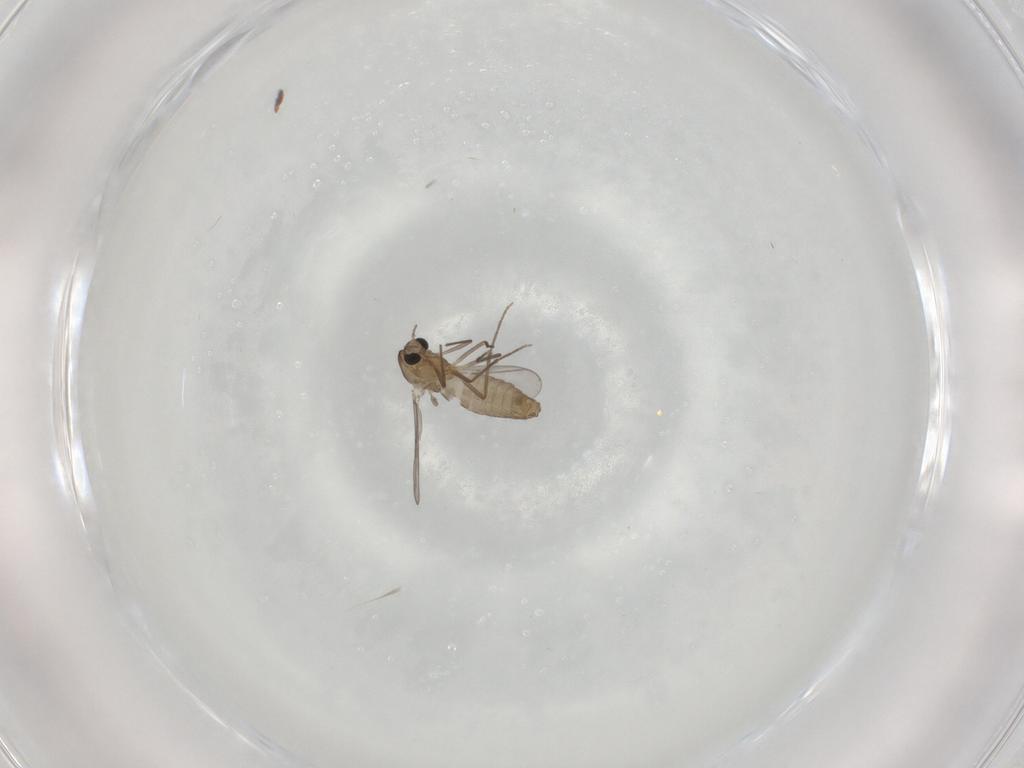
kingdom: Animalia
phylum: Arthropoda
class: Insecta
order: Diptera
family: Chironomidae
